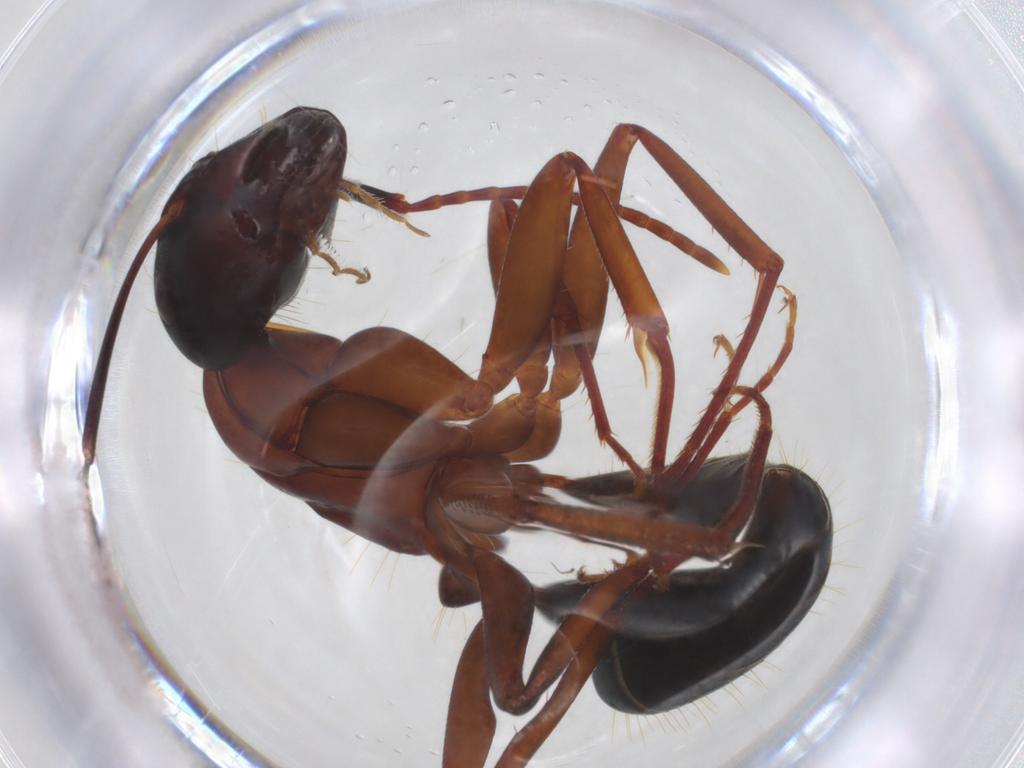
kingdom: Animalia
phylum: Arthropoda
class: Insecta
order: Hymenoptera
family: Formicidae
